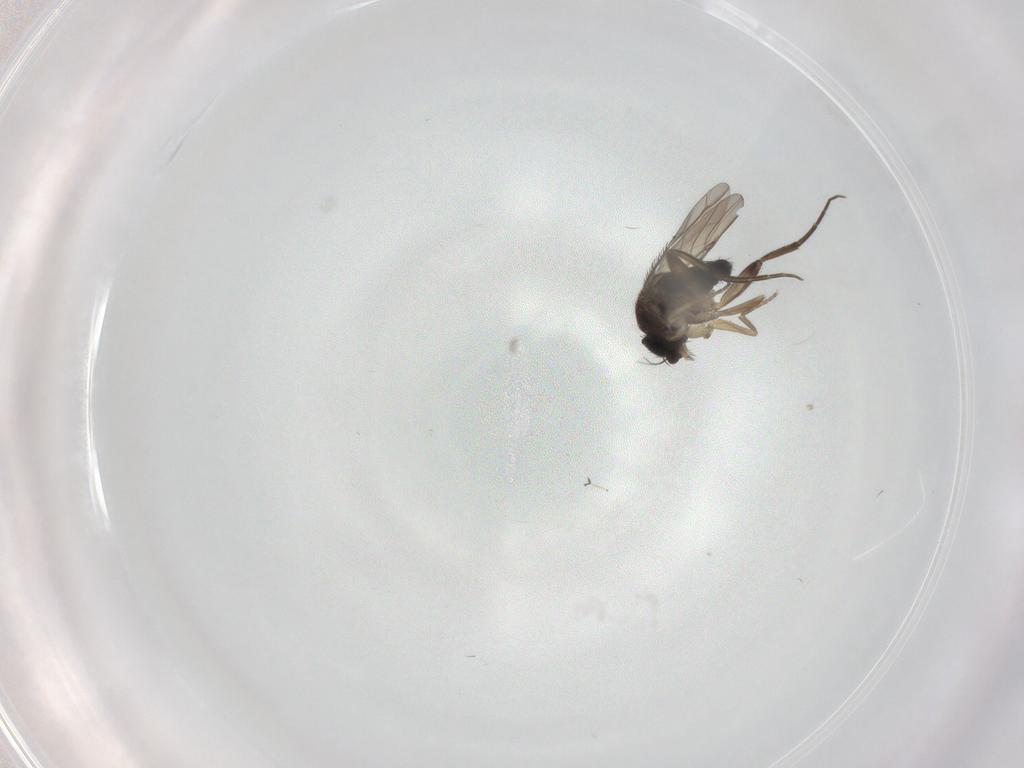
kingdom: Animalia
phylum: Arthropoda
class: Insecta
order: Diptera
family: Phoridae
